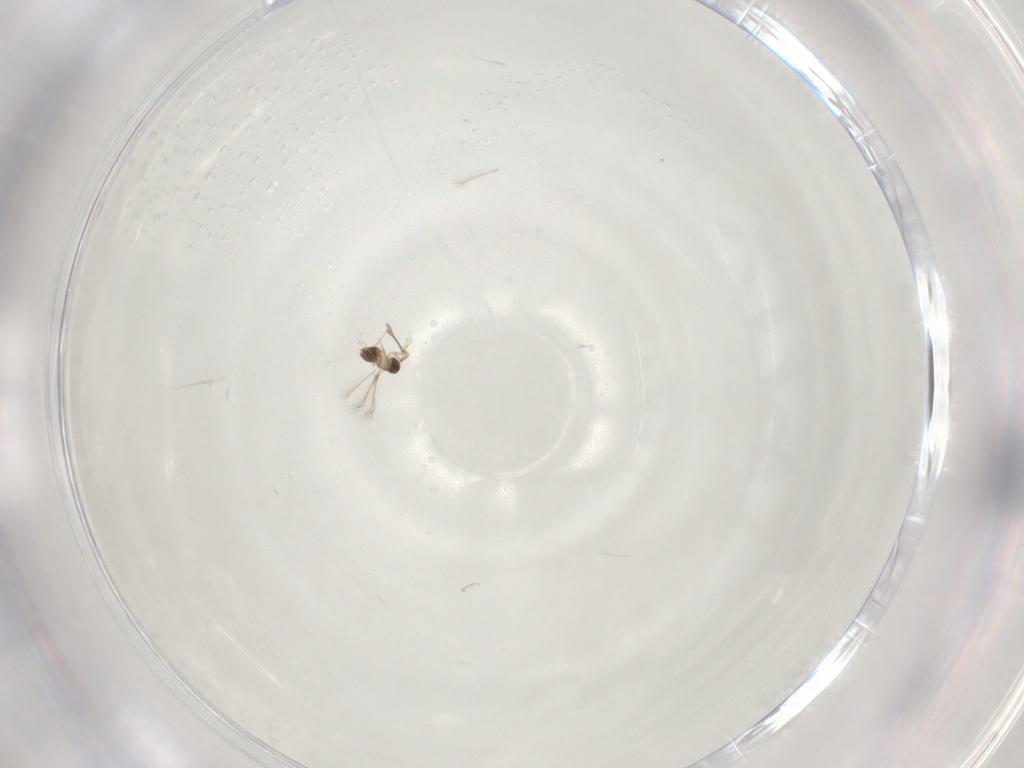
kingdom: Animalia
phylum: Arthropoda
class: Insecta
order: Hymenoptera
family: Mymaridae
